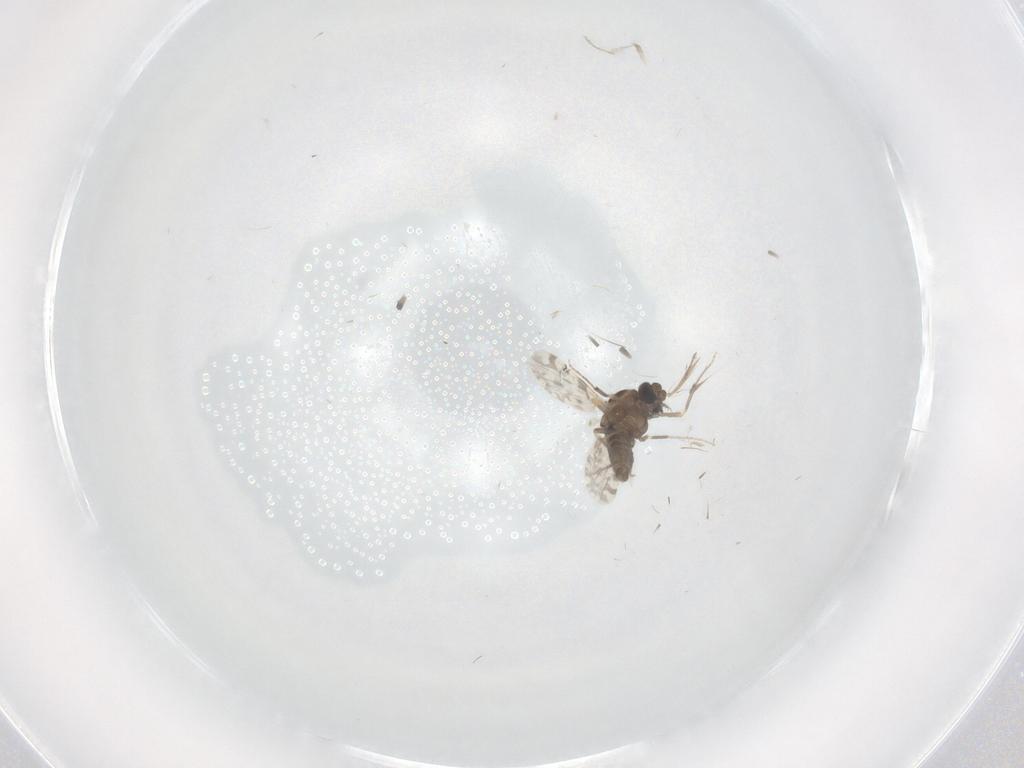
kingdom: Animalia
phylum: Arthropoda
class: Insecta
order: Diptera
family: Ceratopogonidae
